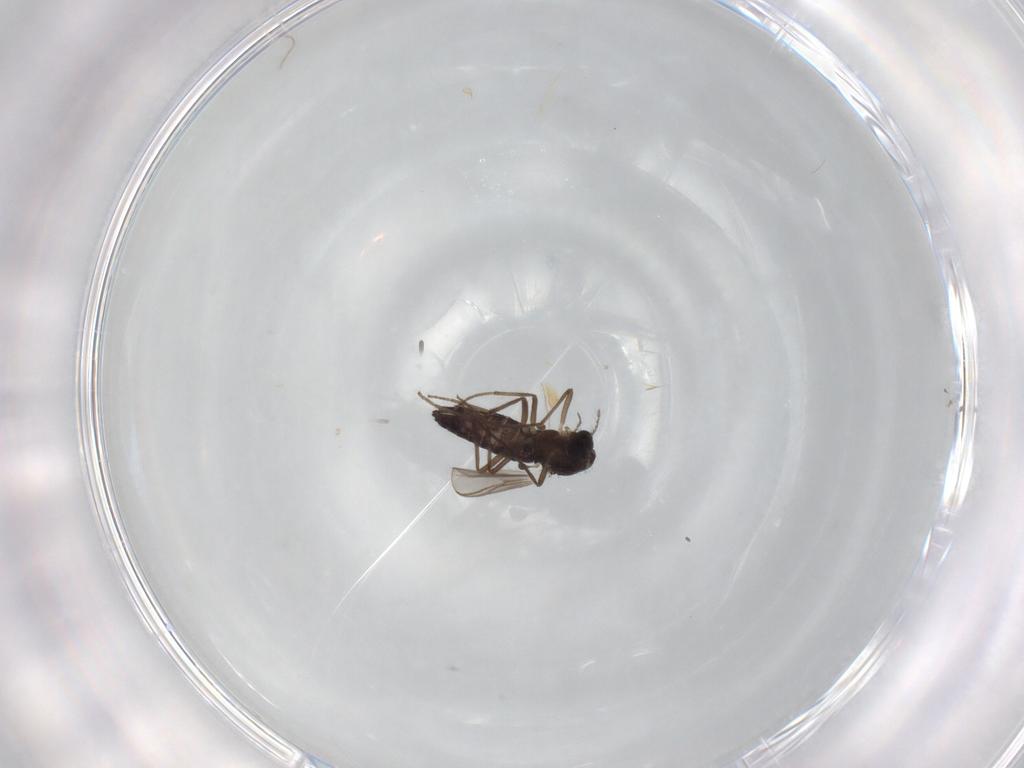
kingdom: Animalia
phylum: Arthropoda
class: Insecta
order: Diptera
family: Chironomidae
